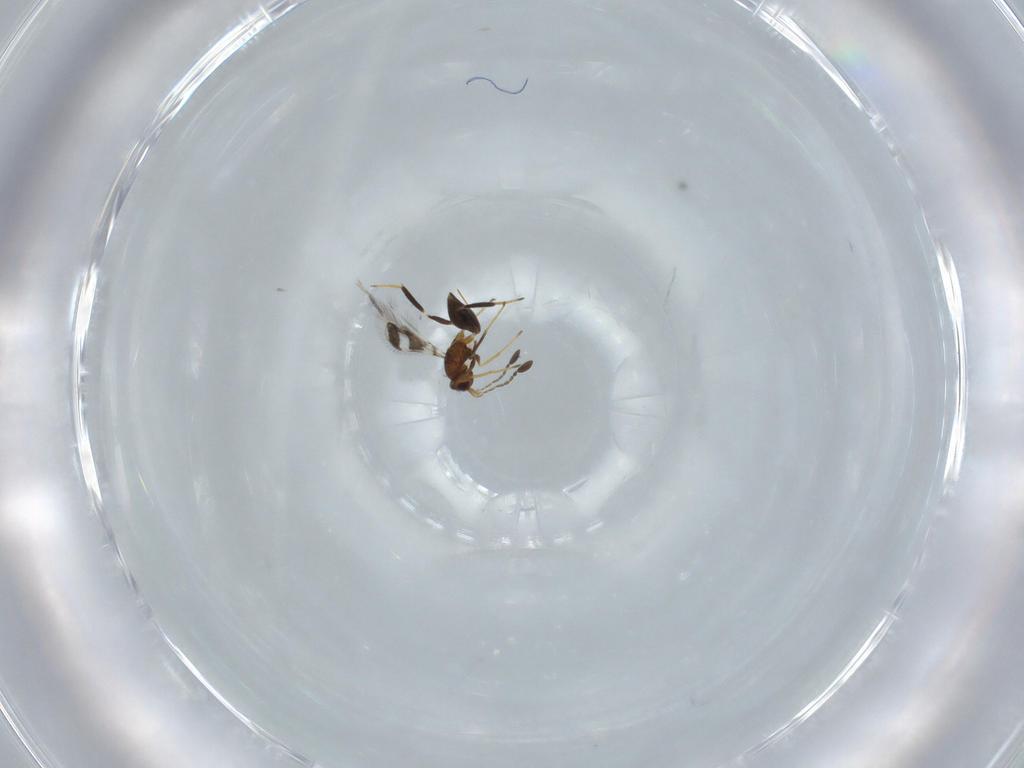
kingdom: Animalia
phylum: Arthropoda
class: Insecta
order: Hymenoptera
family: Mymaridae
